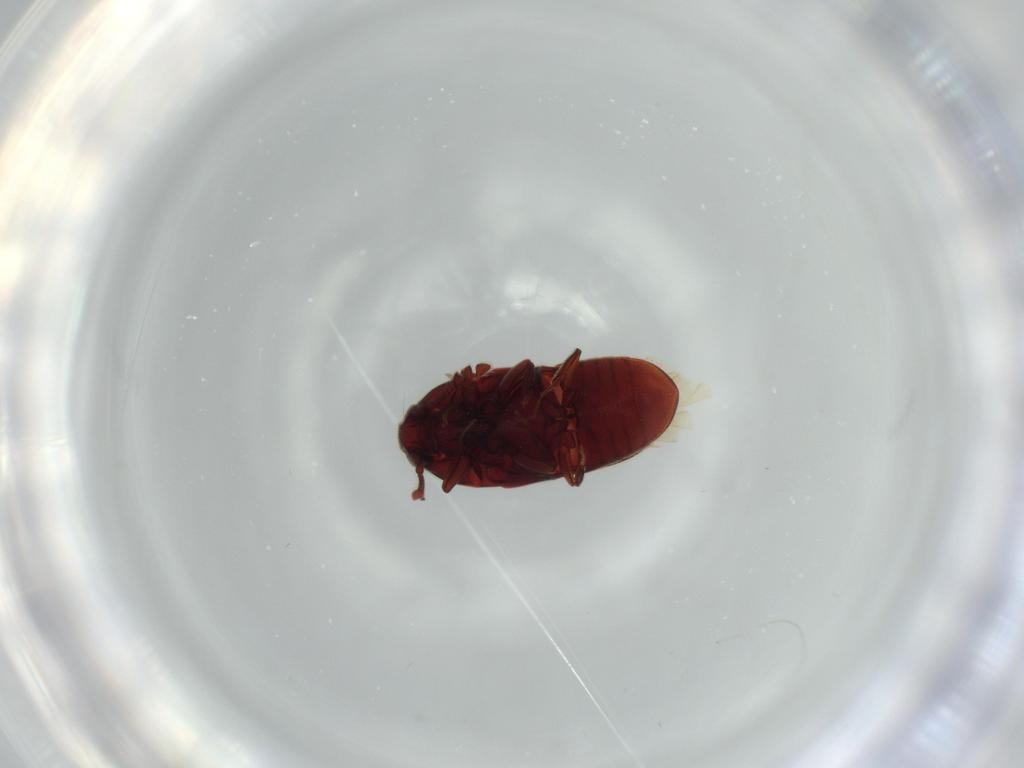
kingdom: Animalia
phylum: Arthropoda
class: Insecta
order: Coleoptera
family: Throscidae
